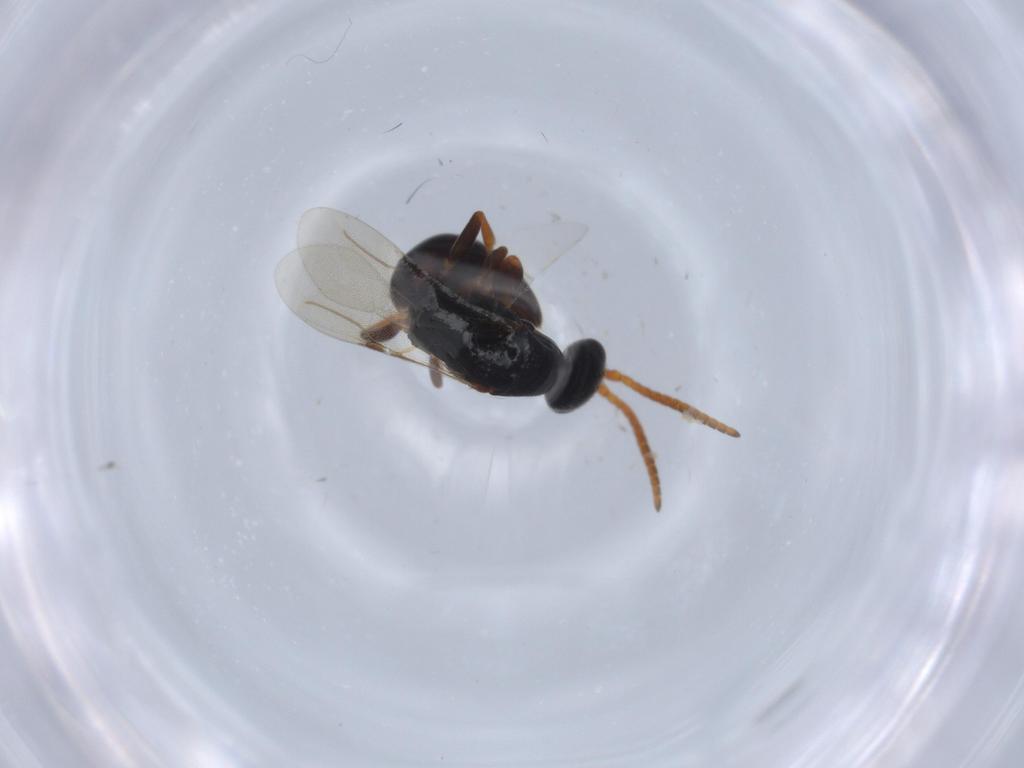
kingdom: Animalia
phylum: Arthropoda
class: Insecta
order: Hymenoptera
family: Bethylidae
